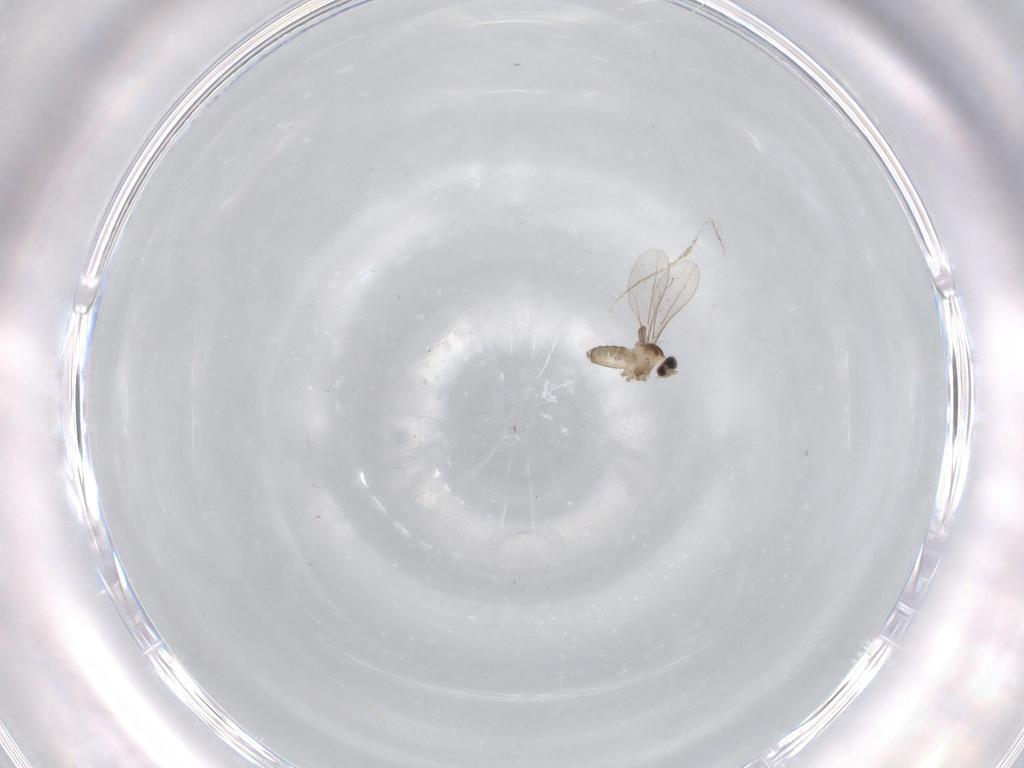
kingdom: Animalia
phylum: Arthropoda
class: Insecta
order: Diptera
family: Cecidomyiidae
